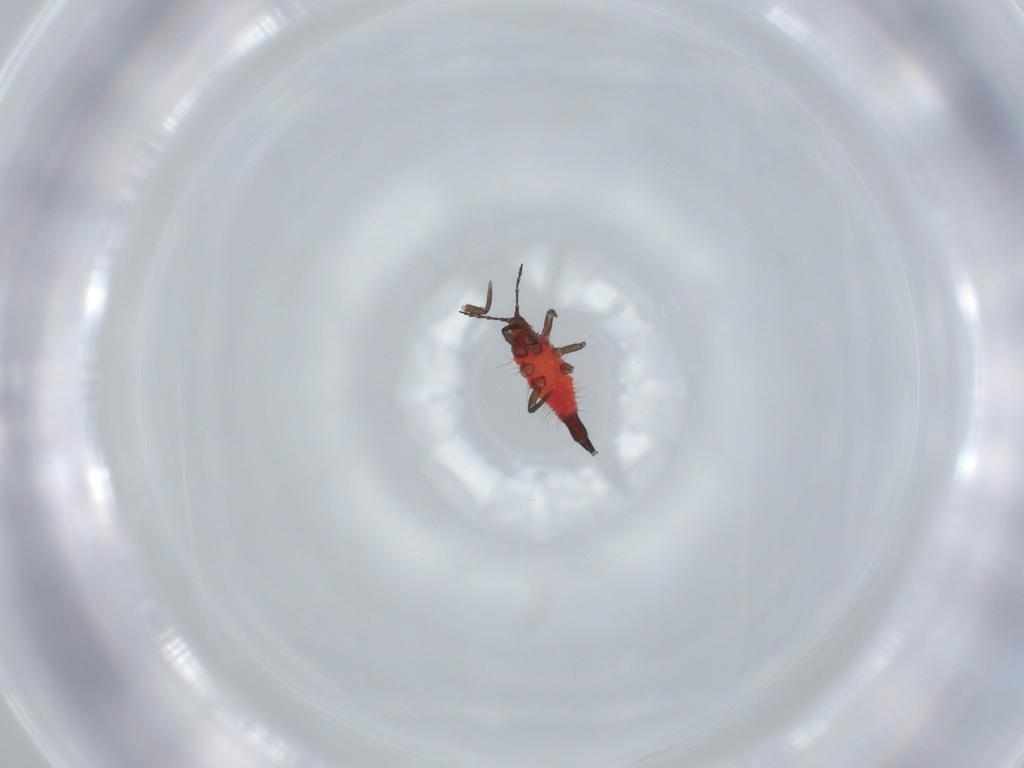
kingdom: Animalia
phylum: Arthropoda
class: Insecta
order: Thysanoptera
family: Phlaeothripidae
